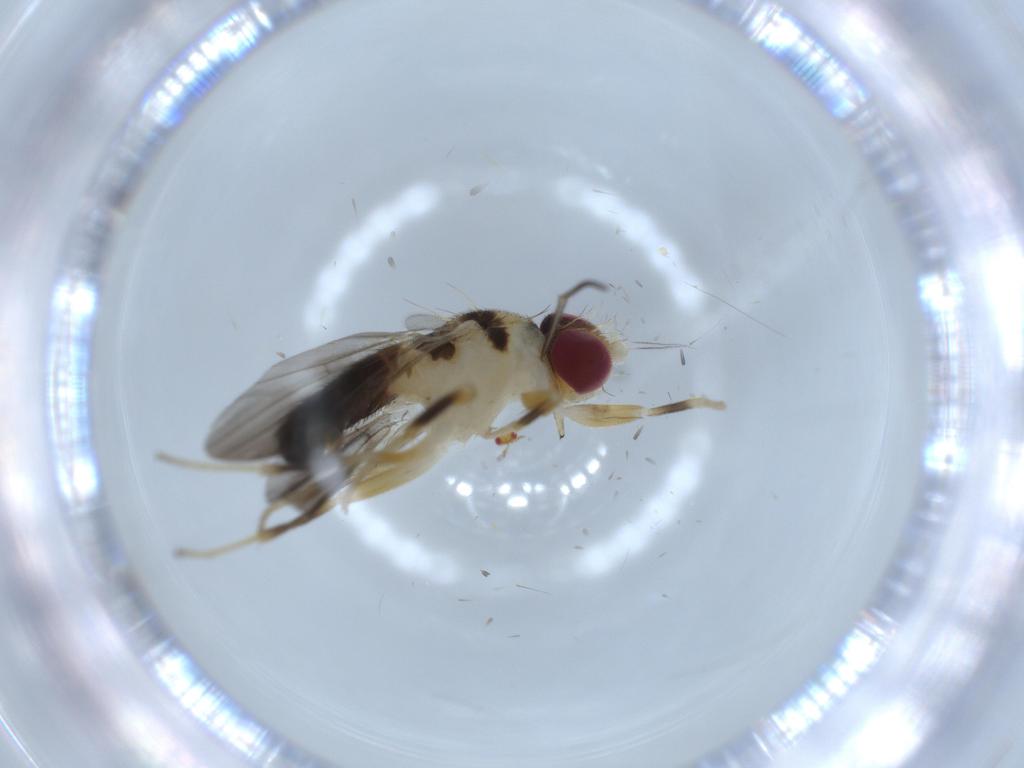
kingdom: Animalia
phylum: Arthropoda
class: Insecta
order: Diptera
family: Clusiidae
